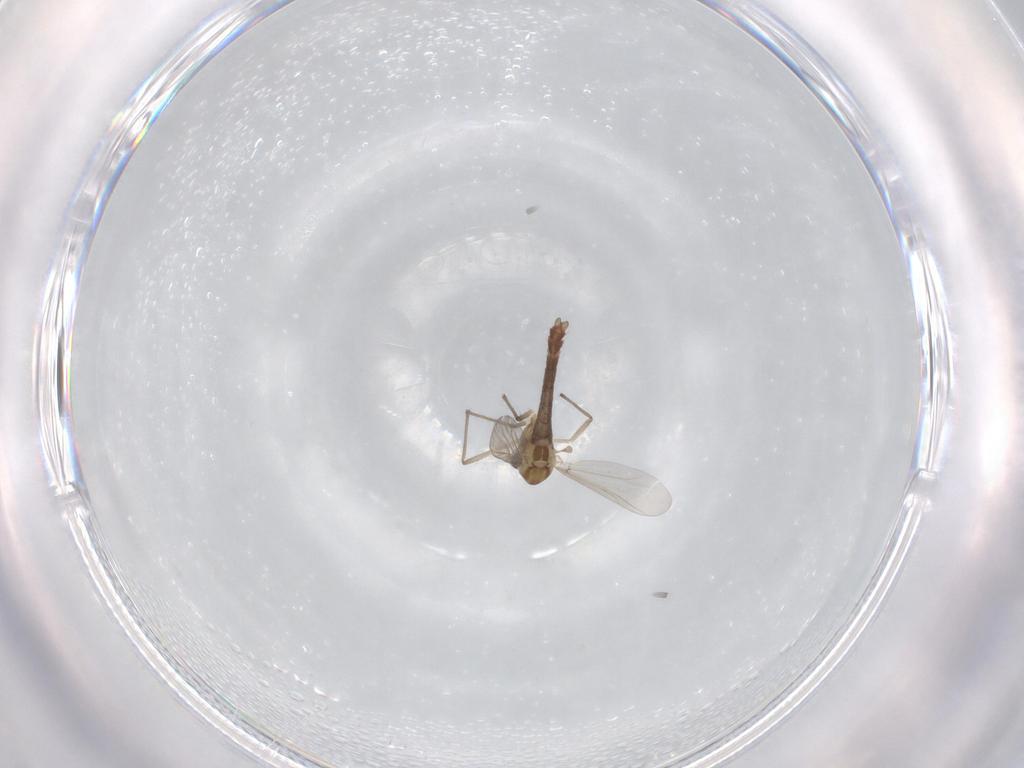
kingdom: Animalia
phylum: Arthropoda
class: Insecta
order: Diptera
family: Chironomidae
